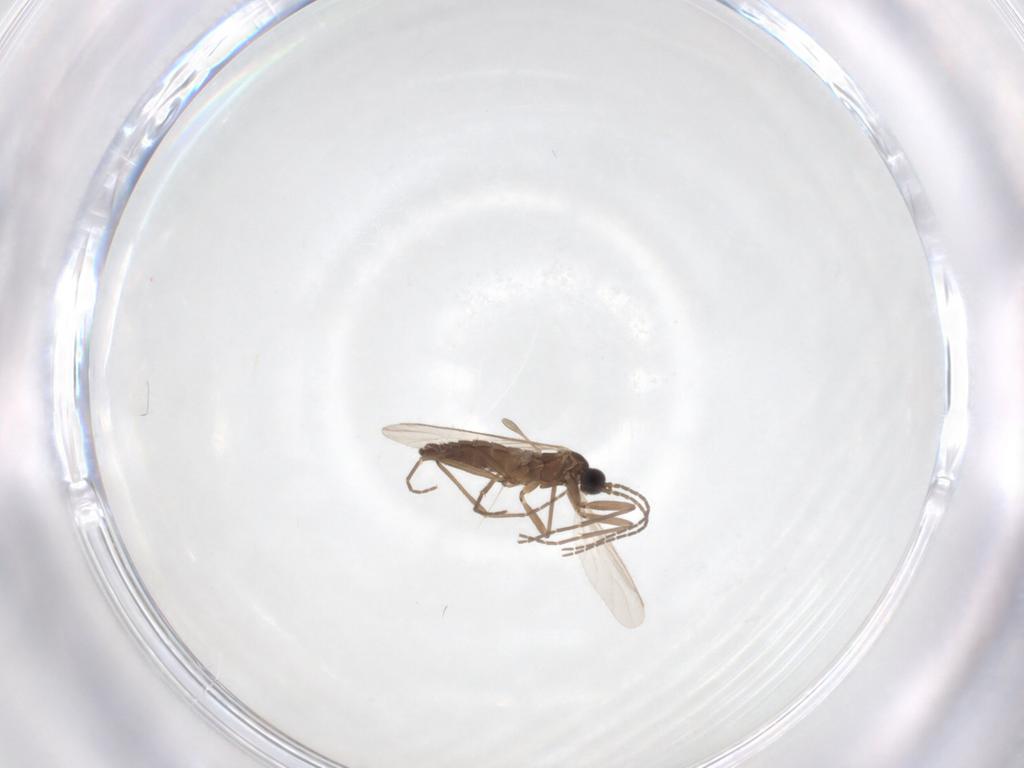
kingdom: Animalia
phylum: Arthropoda
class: Insecta
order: Diptera
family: Sciaridae
